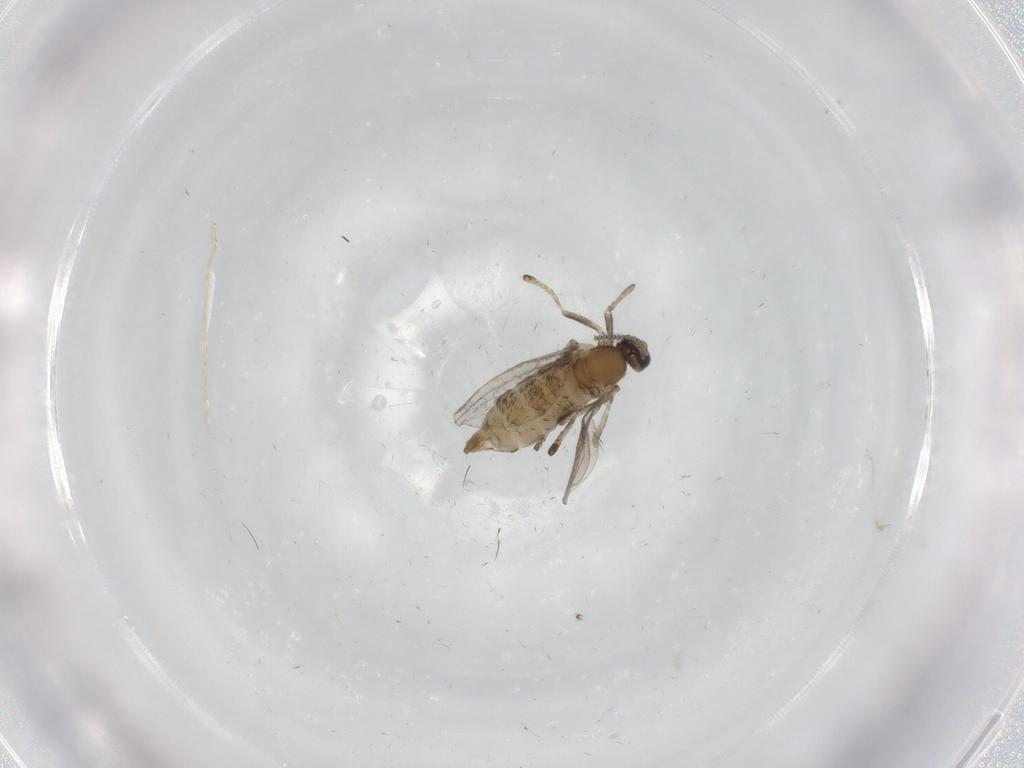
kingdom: Animalia
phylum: Arthropoda
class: Insecta
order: Diptera
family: Cecidomyiidae
